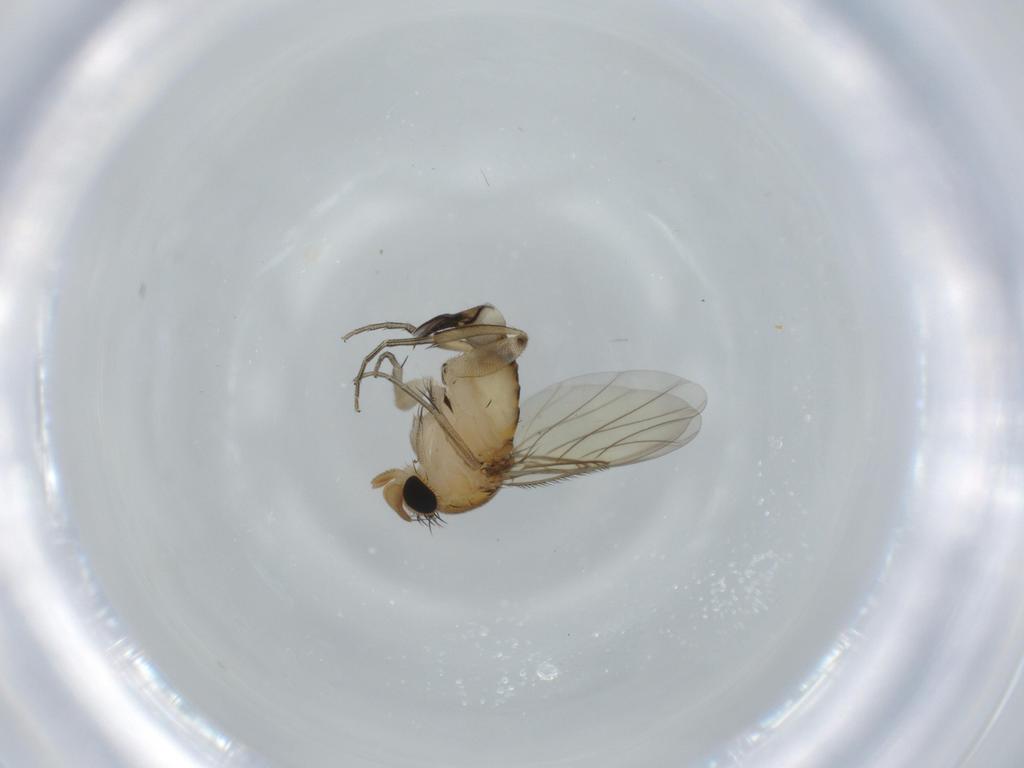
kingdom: Animalia
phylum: Arthropoda
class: Insecta
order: Diptera
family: Phoridae
